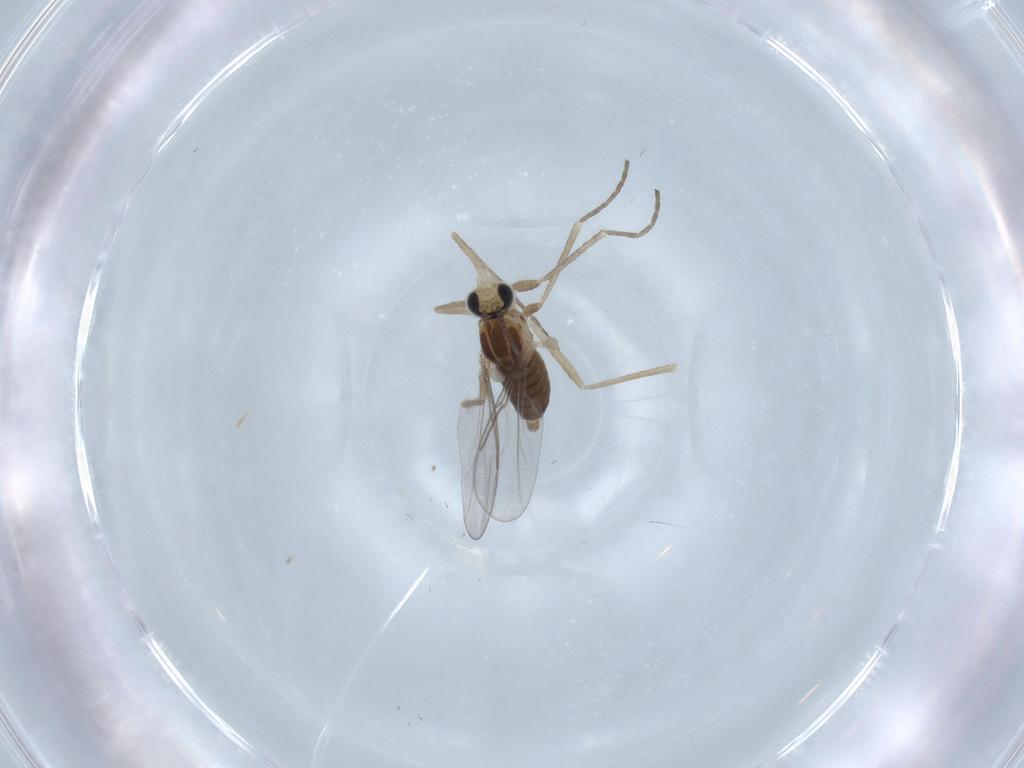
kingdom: Animalia
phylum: Arthropoda
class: Insecta
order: Diptera
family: Cecidomyiidae
